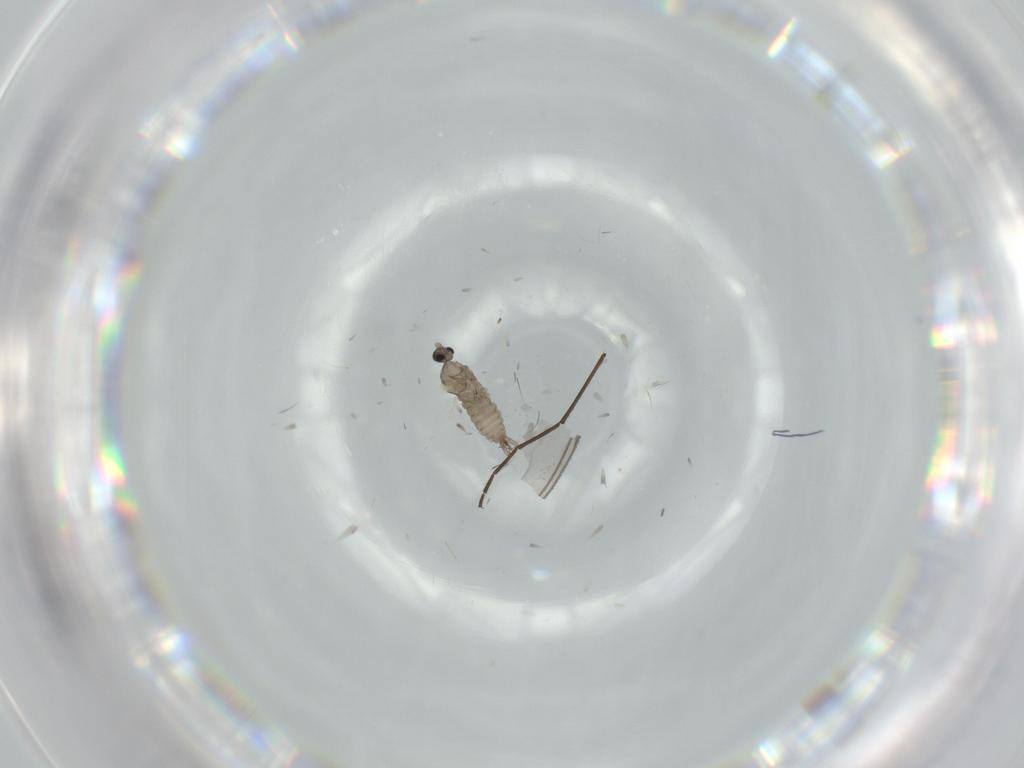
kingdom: Animalia
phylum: Arthropoda
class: Insecta
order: Diptera
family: Cecidomyiidae
